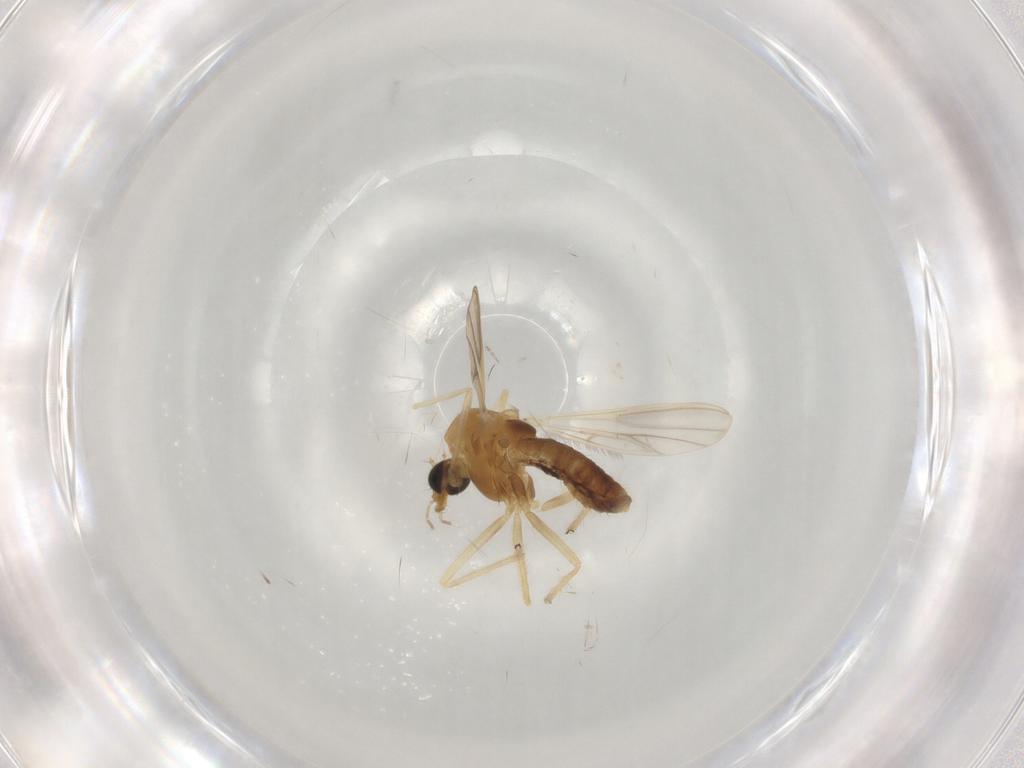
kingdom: Animalia
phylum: Arthropoda
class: Insecta
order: Diptera
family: Chironomidae
